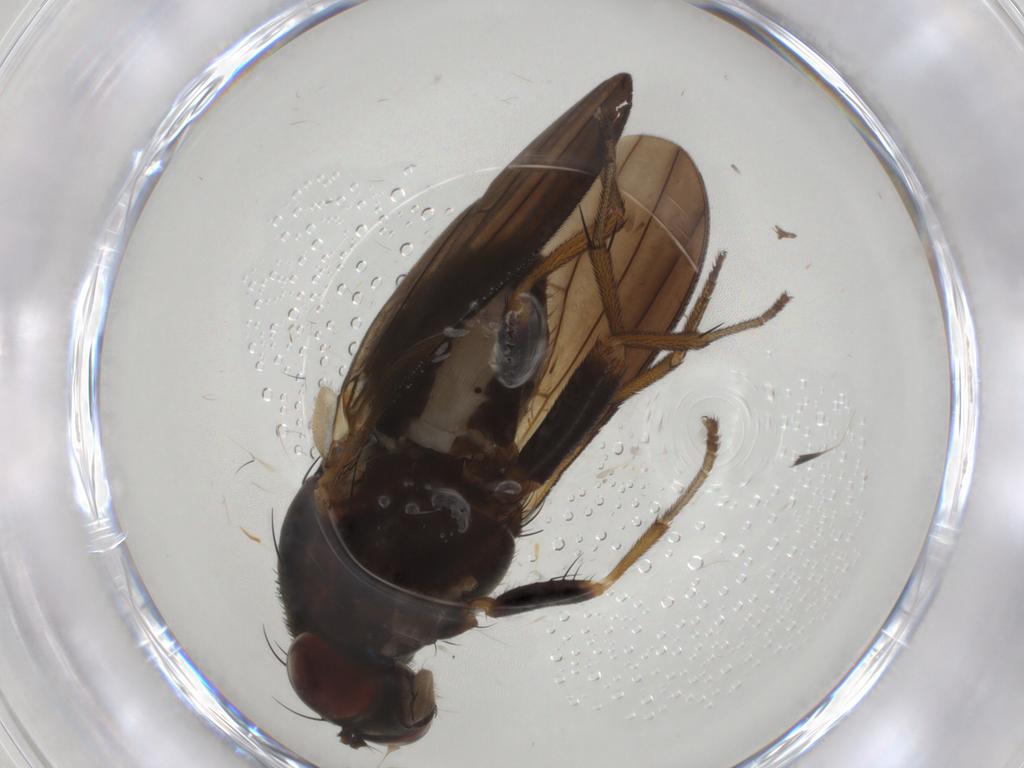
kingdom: Animalia
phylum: Arthropoda
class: Insecta
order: Diptera
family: Chironomidae
